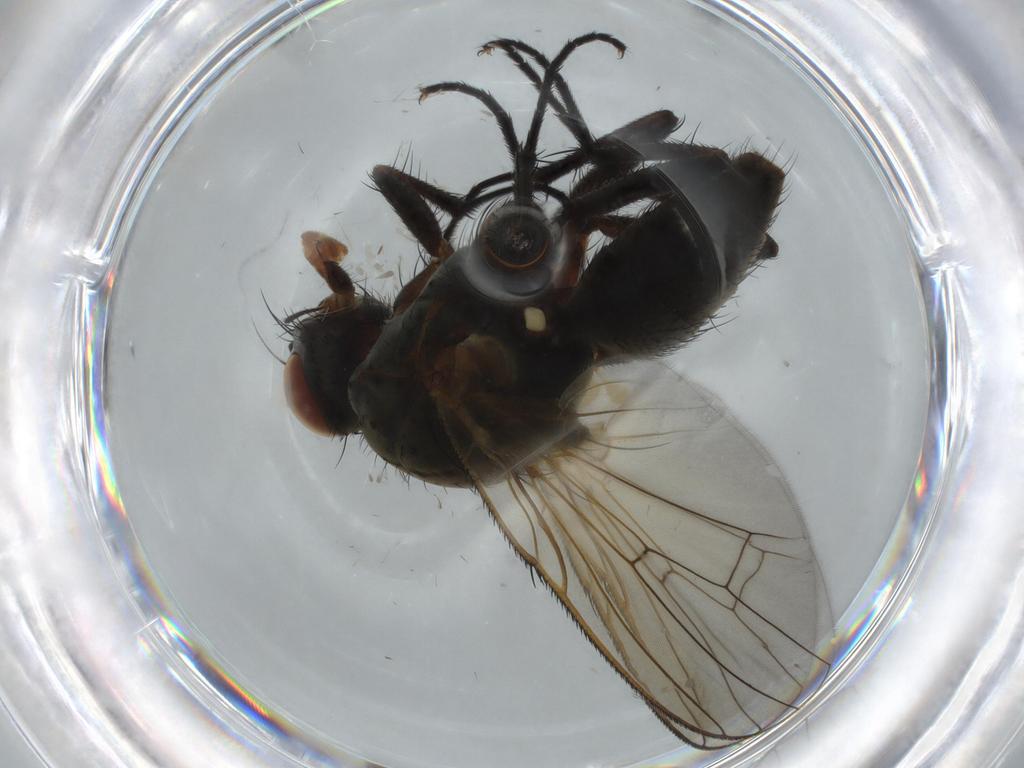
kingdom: Animalia
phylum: Arthropoda
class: Insecta
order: Diptera
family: Anthomyiidae
